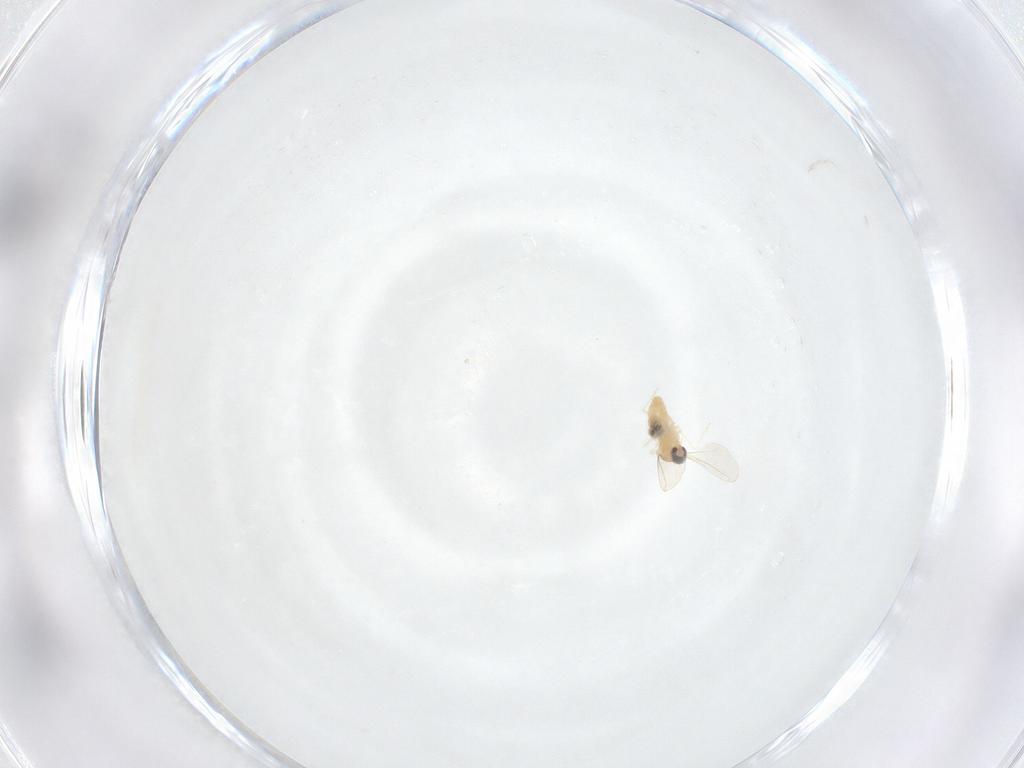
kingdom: Animalia
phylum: Arthropoda
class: Insecta
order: Diptera
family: Cecidomyiidae
